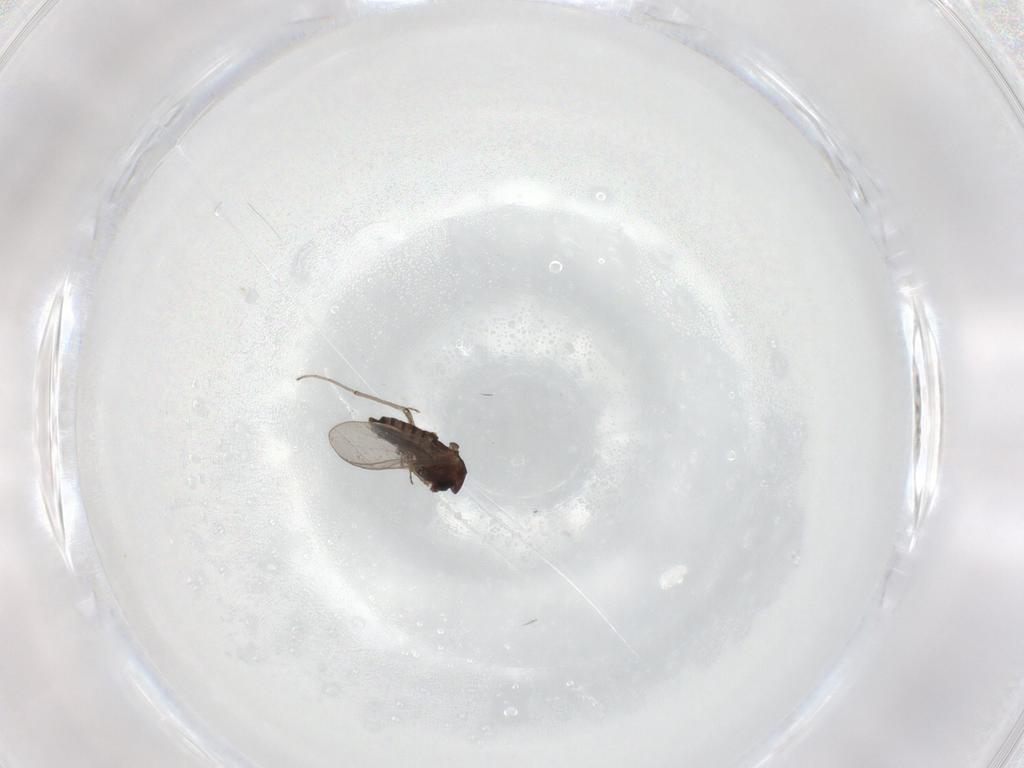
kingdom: Animalia
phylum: Arthropoda
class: Insecta
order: Diptera
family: Chironomidae
